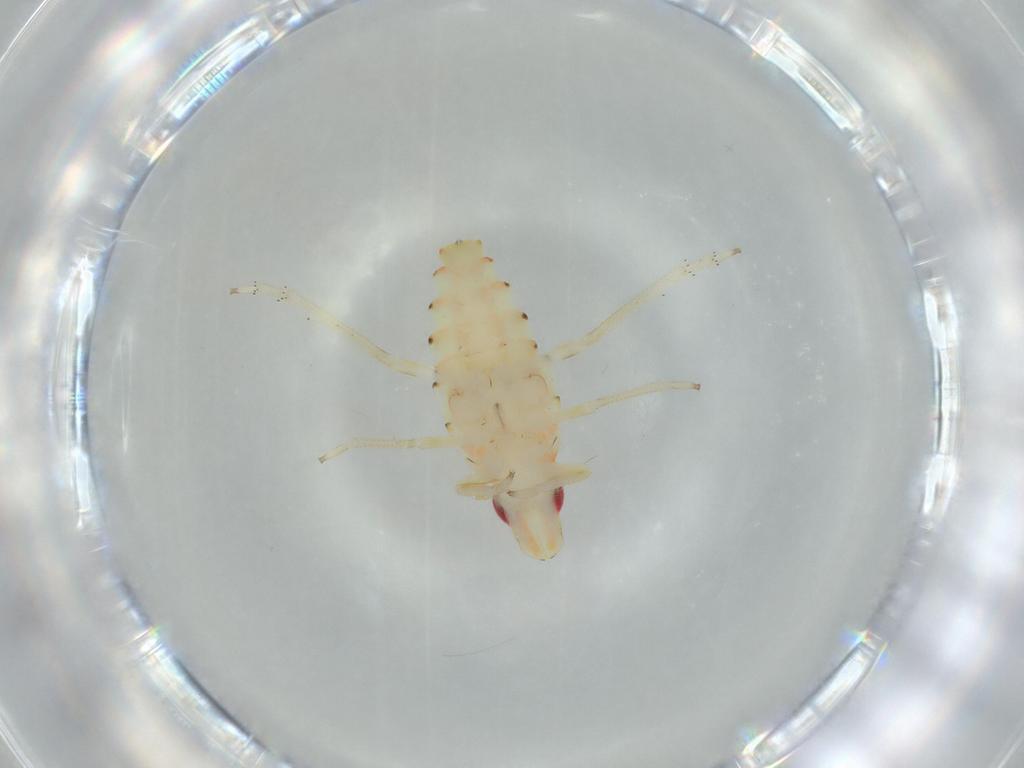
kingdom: Animalia
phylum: Arthropoda
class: Insecta
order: Hemiptera
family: Tropiduchidae
